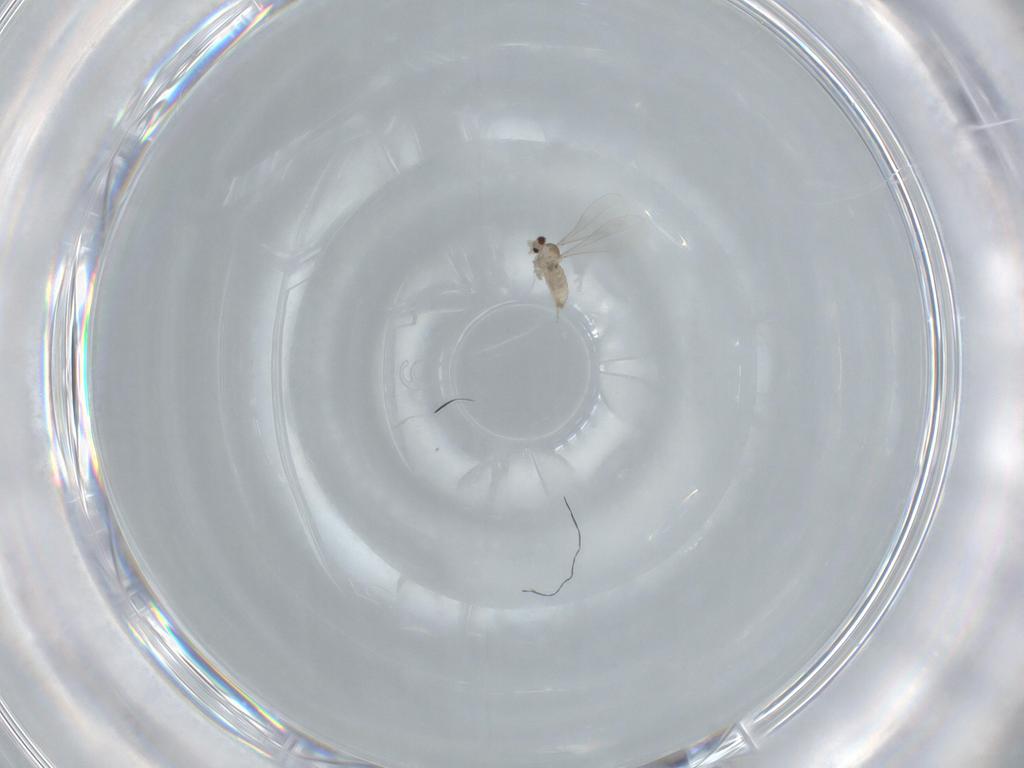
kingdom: Animalia
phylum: Arthropoda
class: Insecta
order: Diptera
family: Cecidomyiidae
